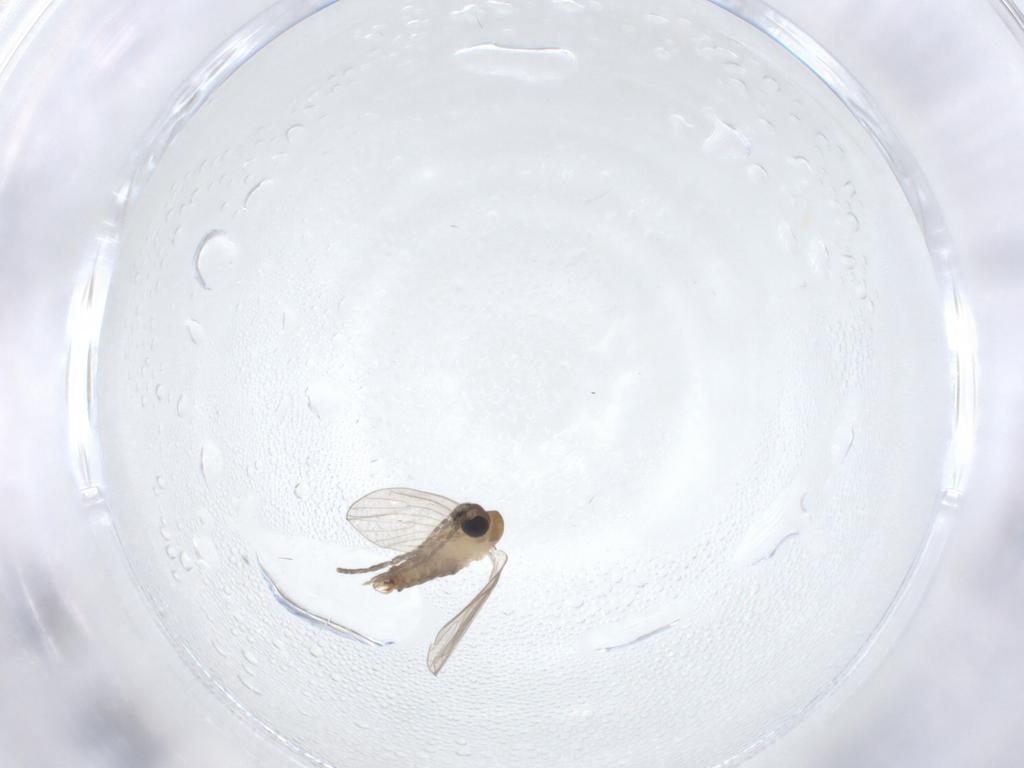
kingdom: Animalia
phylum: Arthropoda
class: Insecta
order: Diptera
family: Psychodidae
